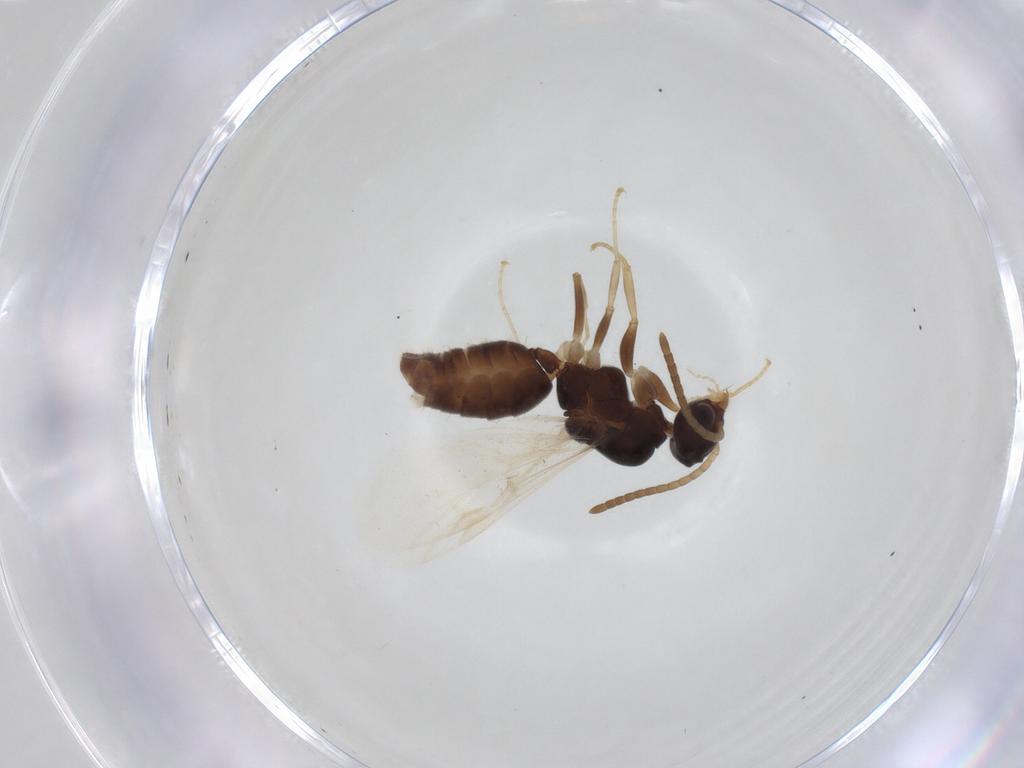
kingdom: Animalia
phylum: Arthropoda
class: Insecta
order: Hymenoptera
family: Formicidae
